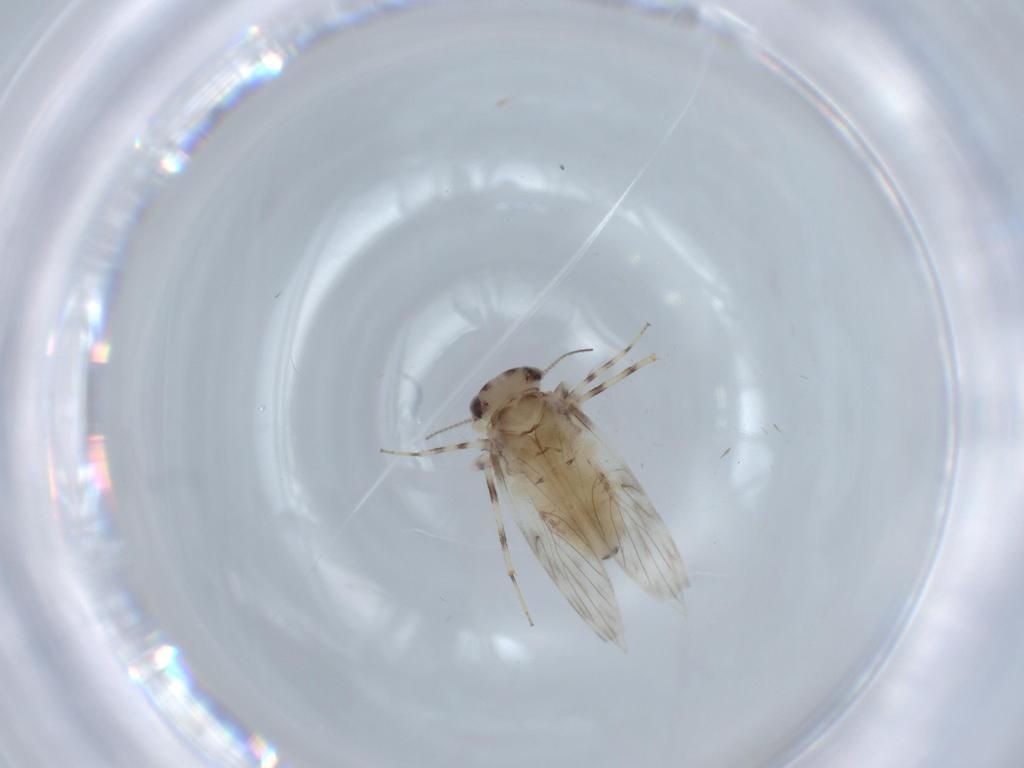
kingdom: Animalia
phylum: Arthropoda
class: Insecta
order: Psocodea
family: Lepidopsocidae
